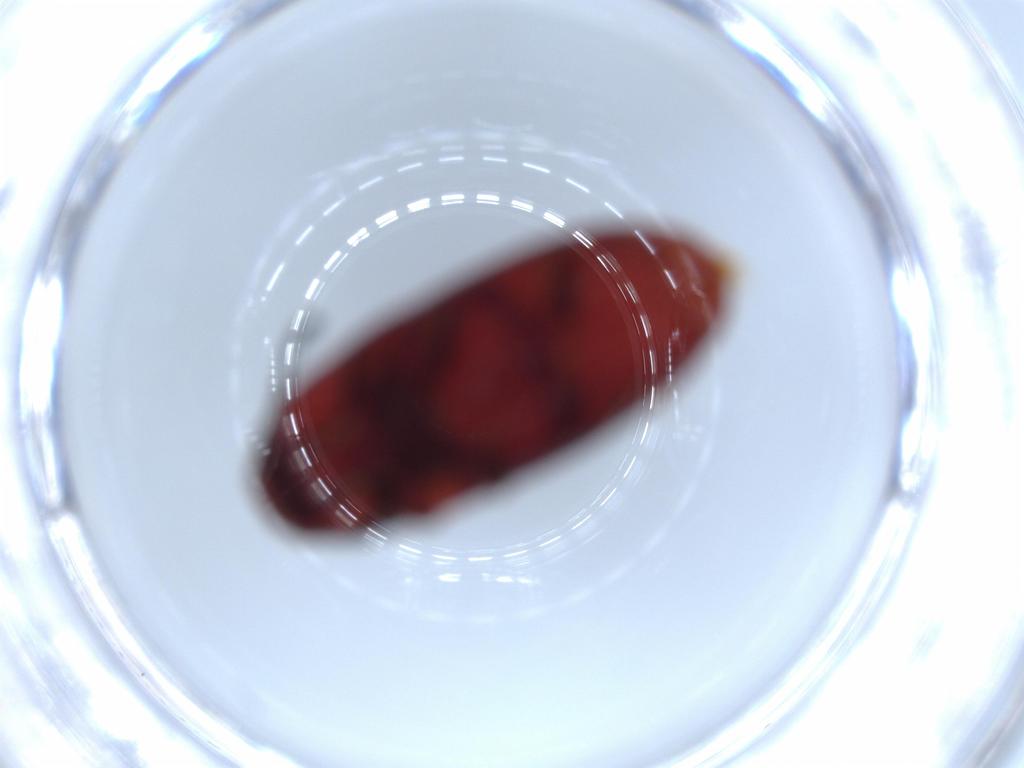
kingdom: Animalia
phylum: Arthropoda
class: Insecta
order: Coleoptera
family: Elateridae
